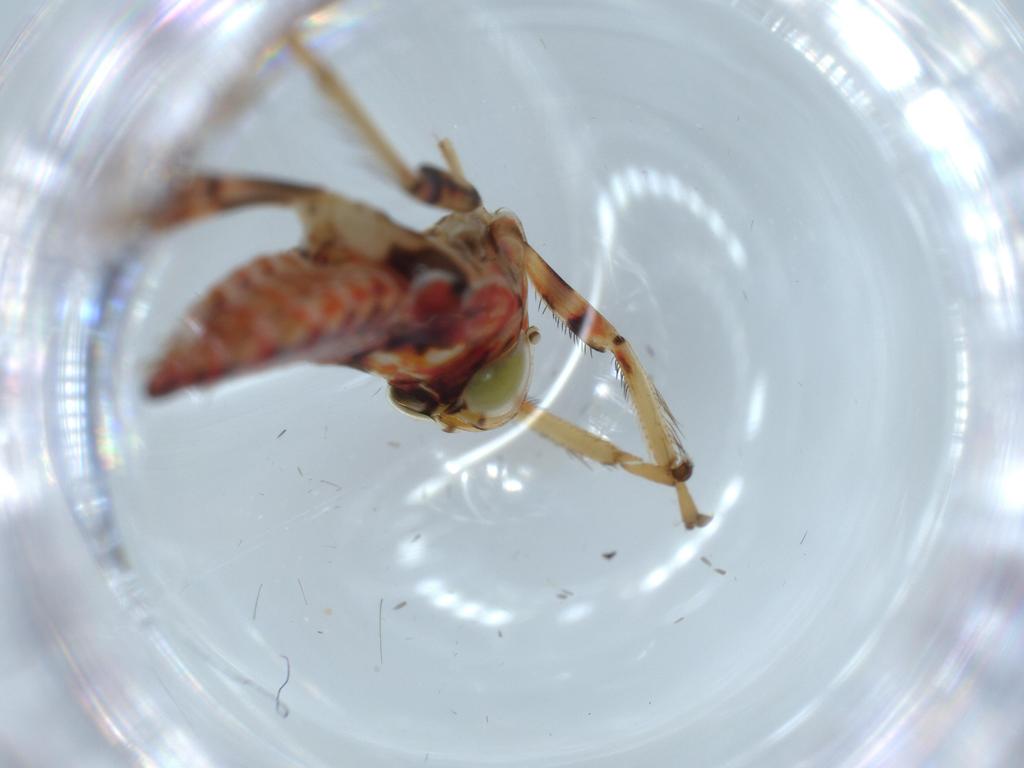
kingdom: Animalia
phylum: Arthropoda
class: Insecta
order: Hemiptera
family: Cicadellidae
